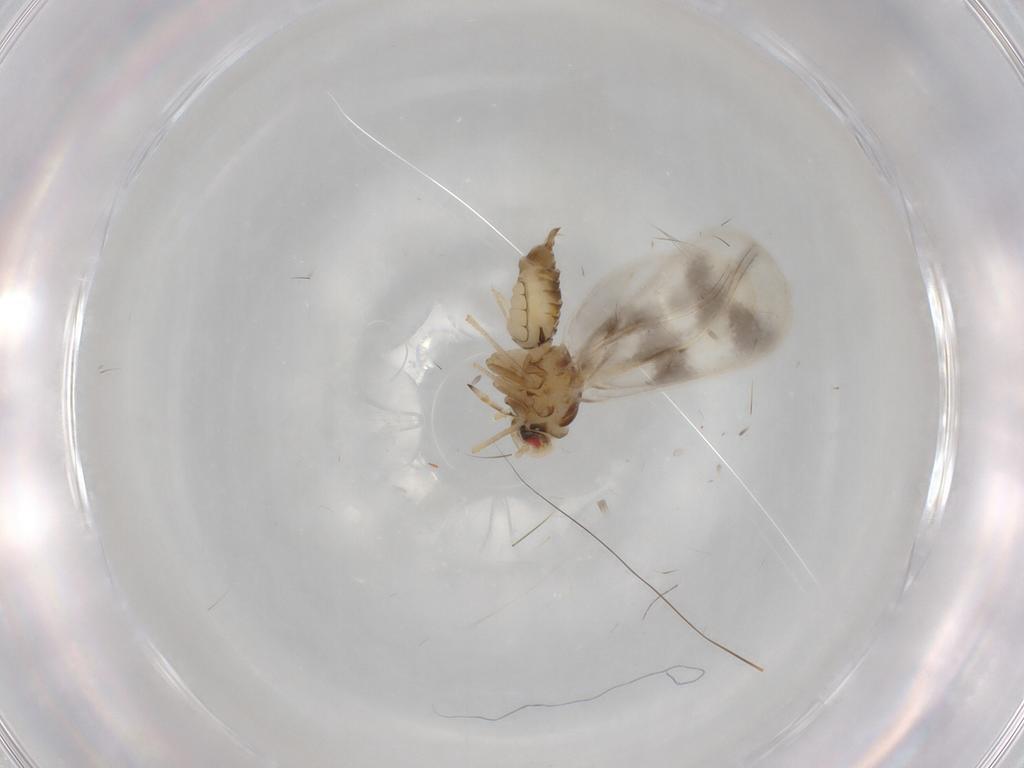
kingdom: Animalia
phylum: Arthropoda
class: Insecta
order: Hemiptera
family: Aleyrodidae
